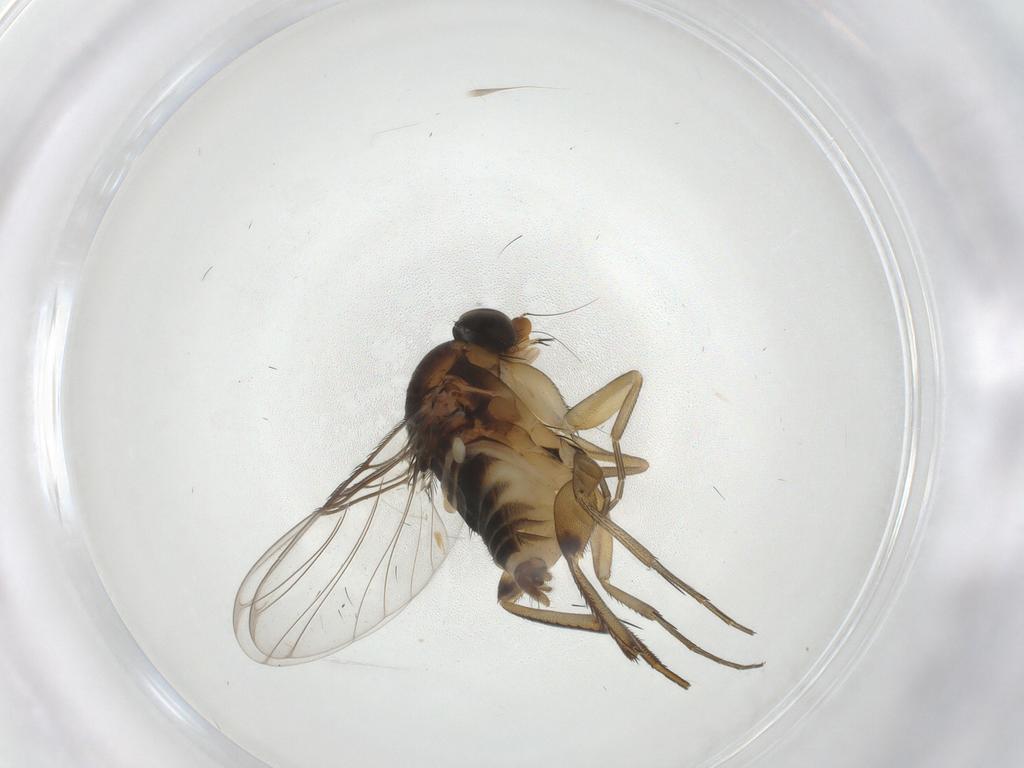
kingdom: Animalia
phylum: Arthropoda
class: Insecta
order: Diptera
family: Phoridae
